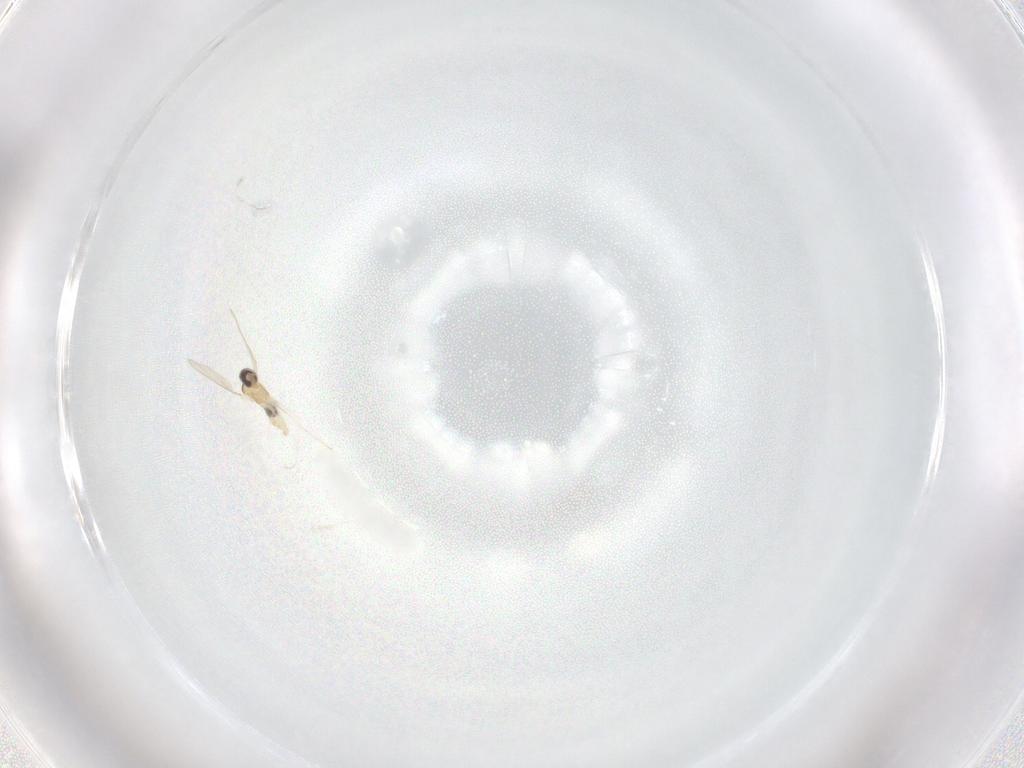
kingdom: Animalia
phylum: Arthropoda
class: Insecta
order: Diptera
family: Cecidomyiidae
